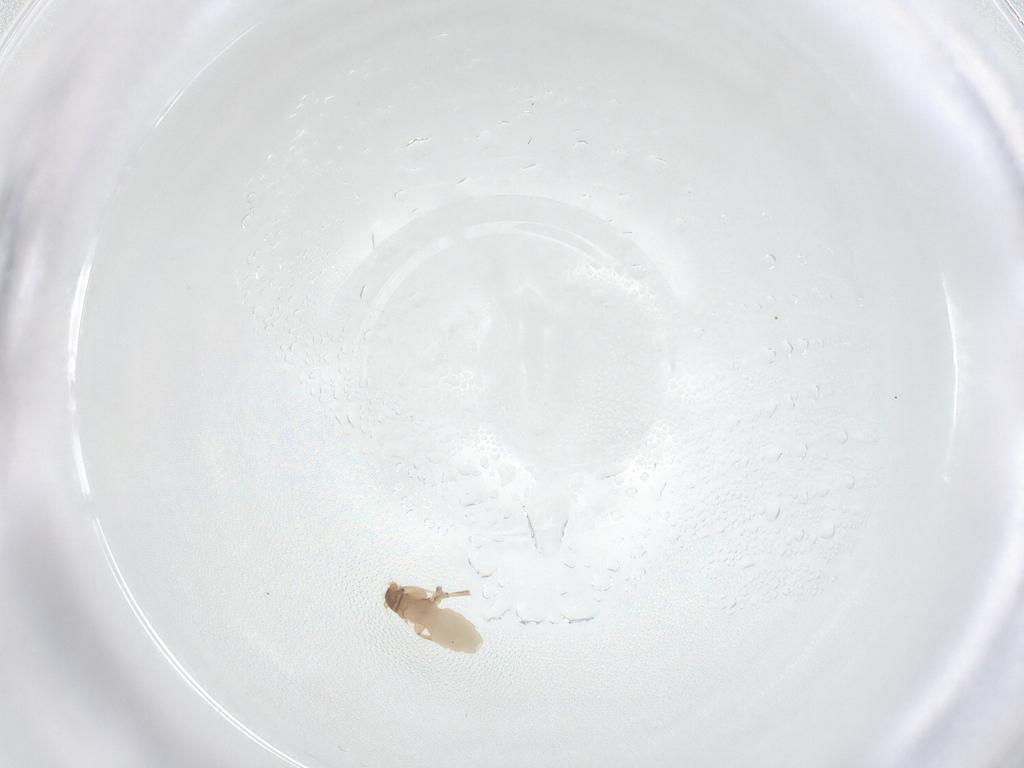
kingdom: Animalia
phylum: Arthropoda
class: Insecta
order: Diptera
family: Phoridae
